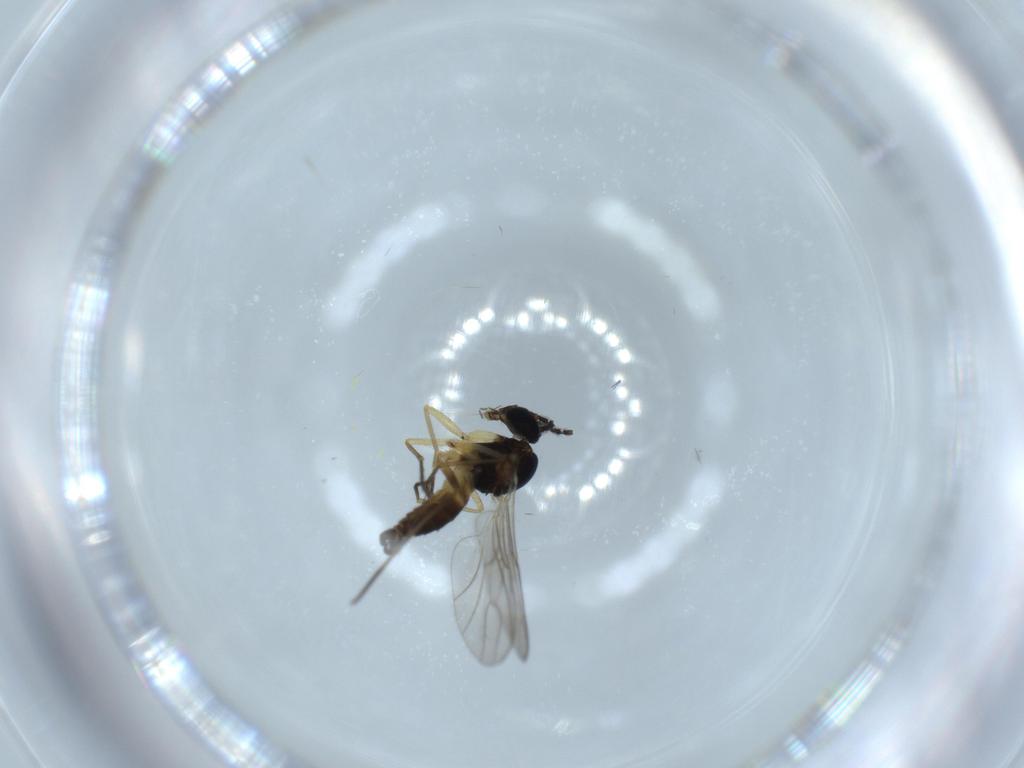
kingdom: Animalia
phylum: Arthropoda
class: Insecta
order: Diptera
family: Sciaridae
